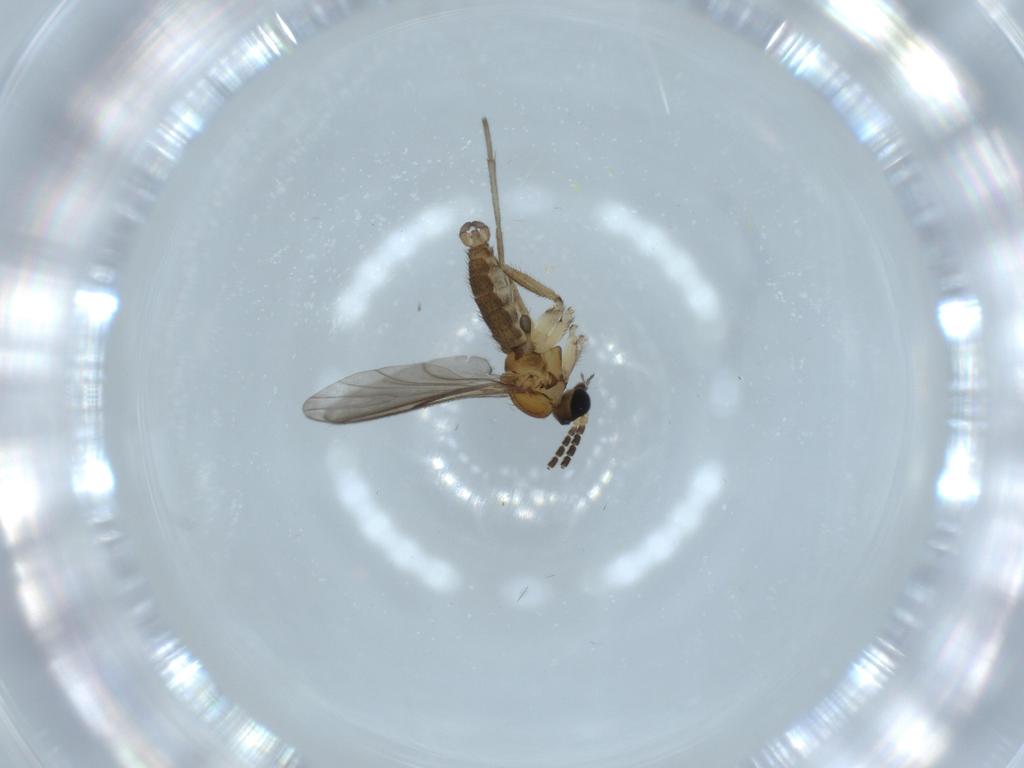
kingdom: Animalia
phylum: Arthropoda
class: Insecta
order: Diptera
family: Sciaridae
